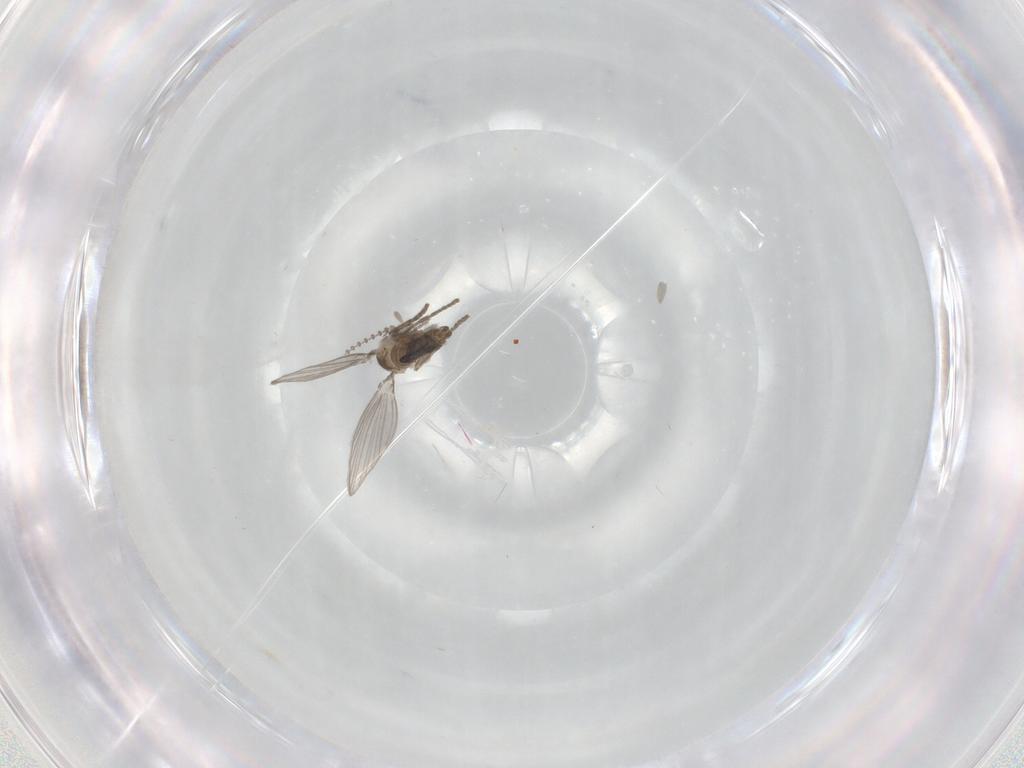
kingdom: Animalia
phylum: Arthropoda
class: Insecta
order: Diptera
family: Psychodidae
